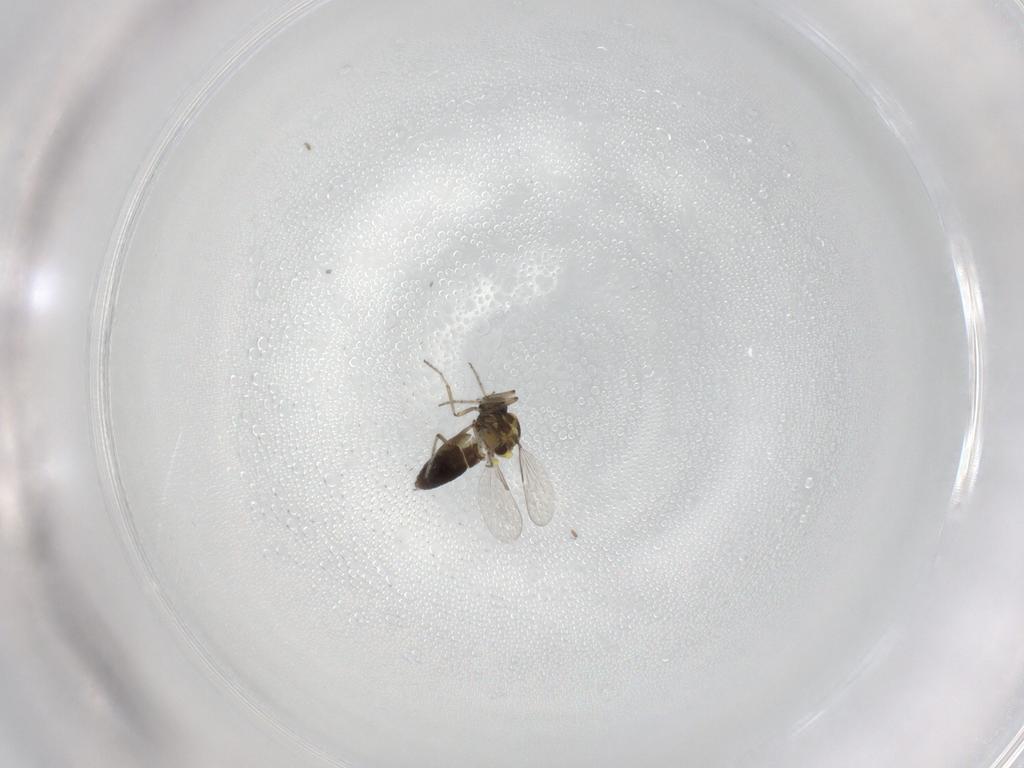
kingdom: Animalia
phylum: Arthropoda
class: Insecta
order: Diptera
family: Ceratopogonidae
